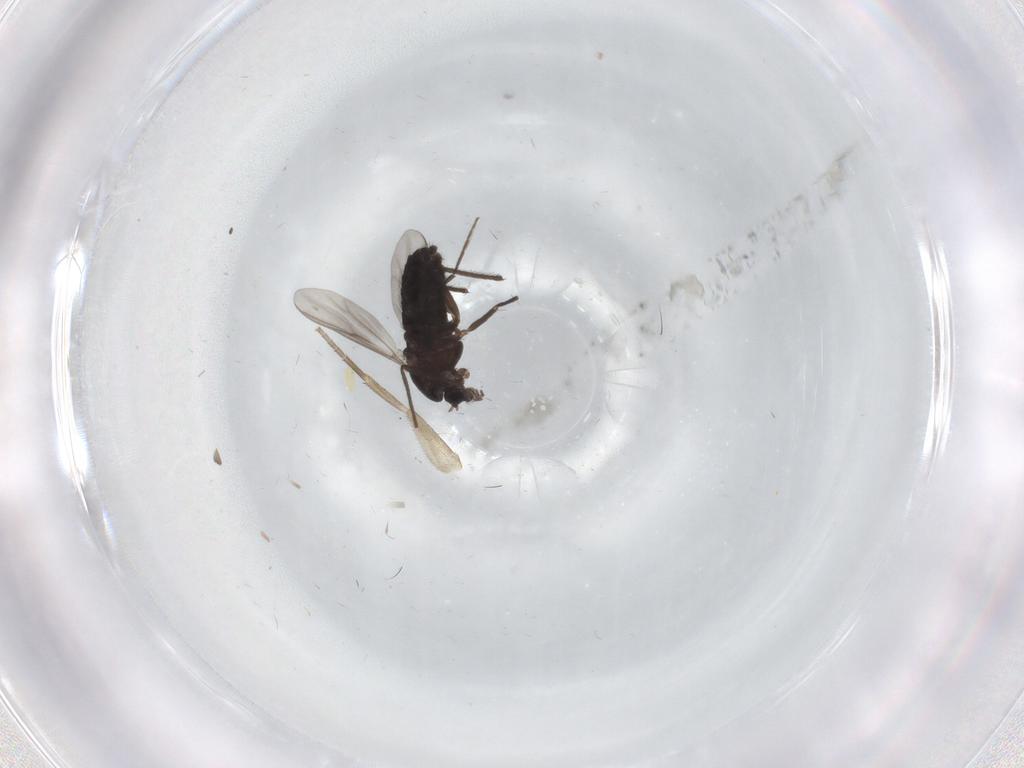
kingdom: Animalia
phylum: Arthropoda
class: Insecta
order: Diptera
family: Chironomidae
